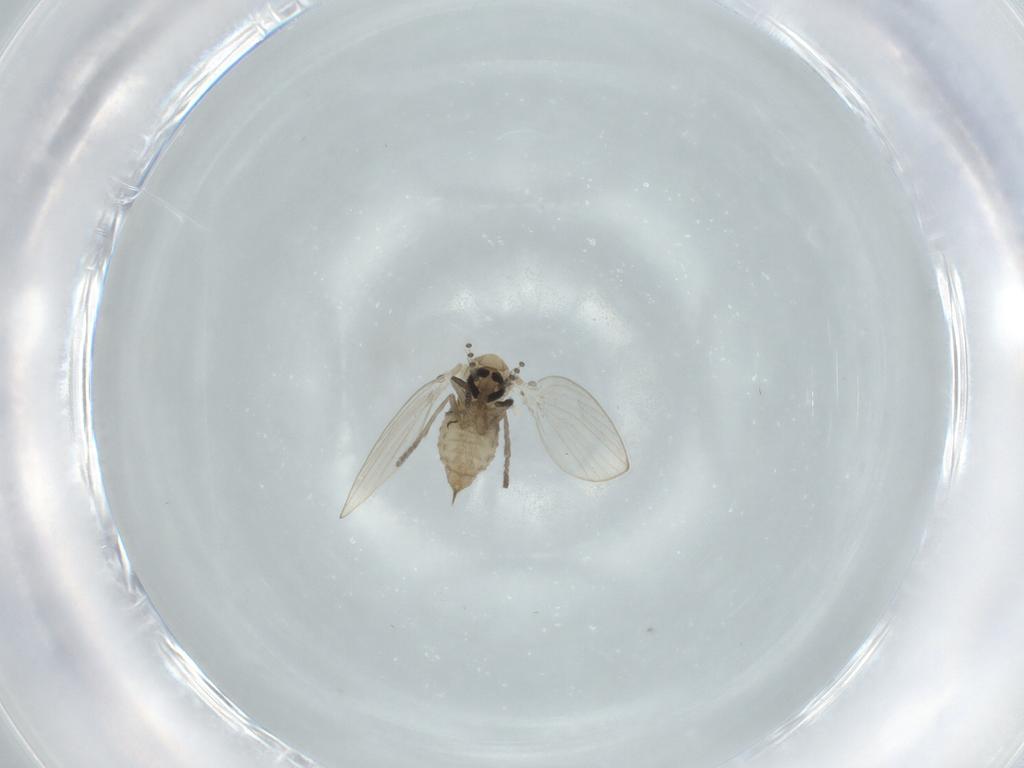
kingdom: Animalia
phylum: Arthropoda
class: Insecta
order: Diptera
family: Psychodidae
